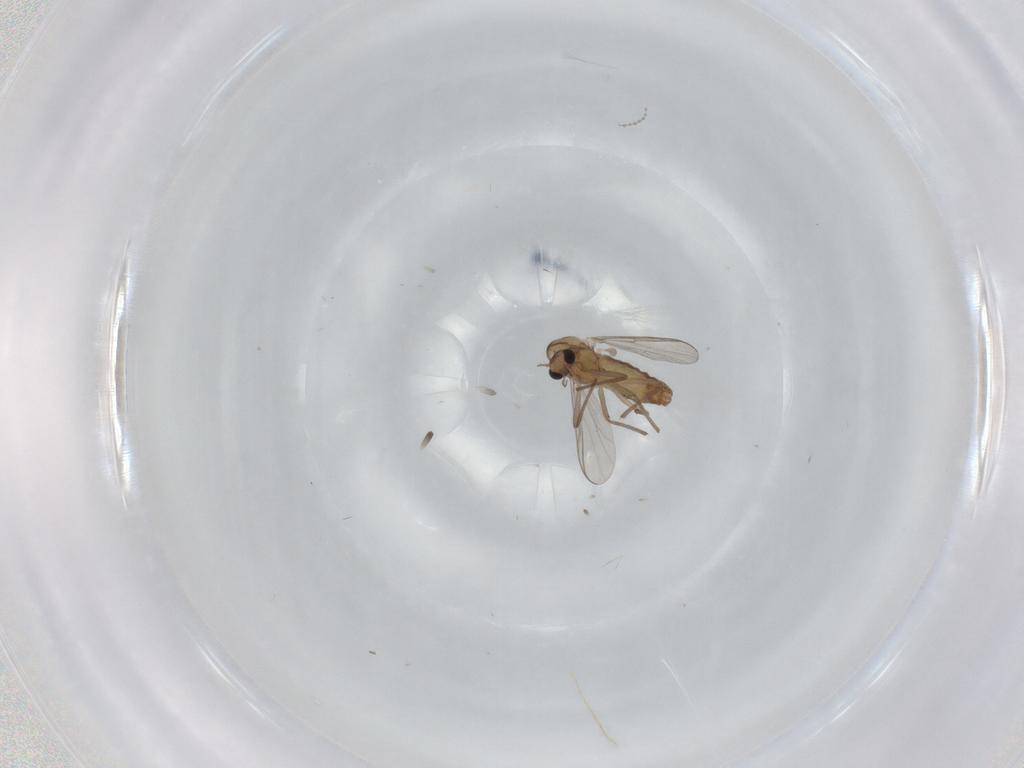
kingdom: Animalia
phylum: Arthropoda
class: Insecta
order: Diptera
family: Chironomidae
